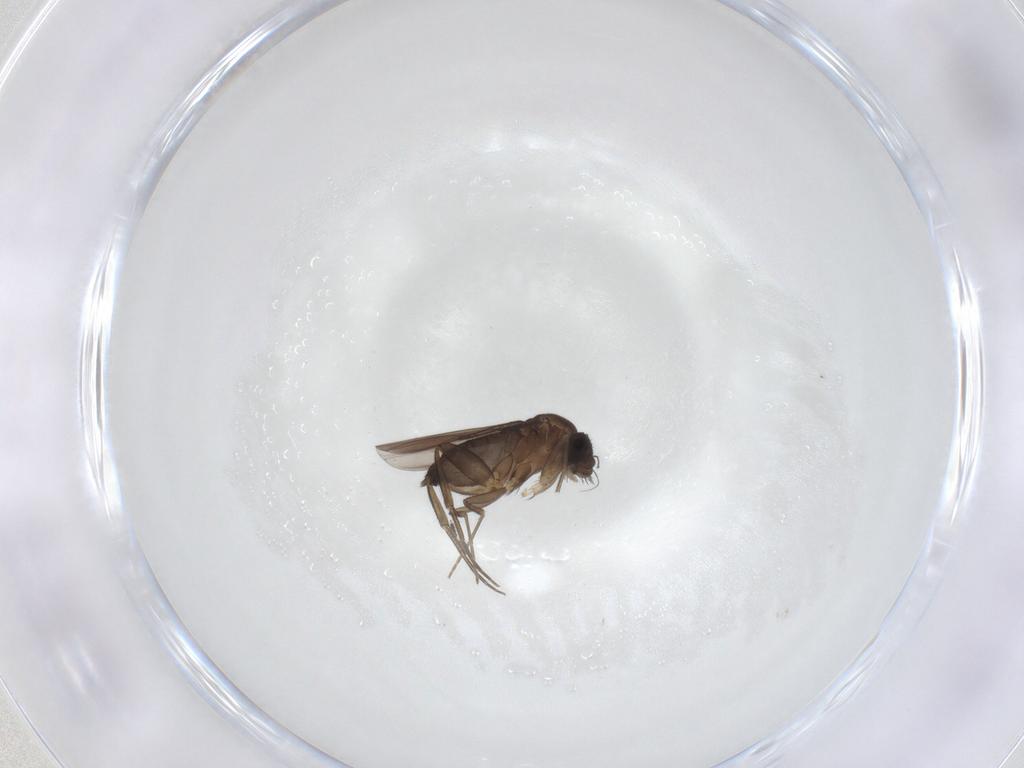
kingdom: Animalia
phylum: Arthropoda
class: Insecta
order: Diptera
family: Phoridae
